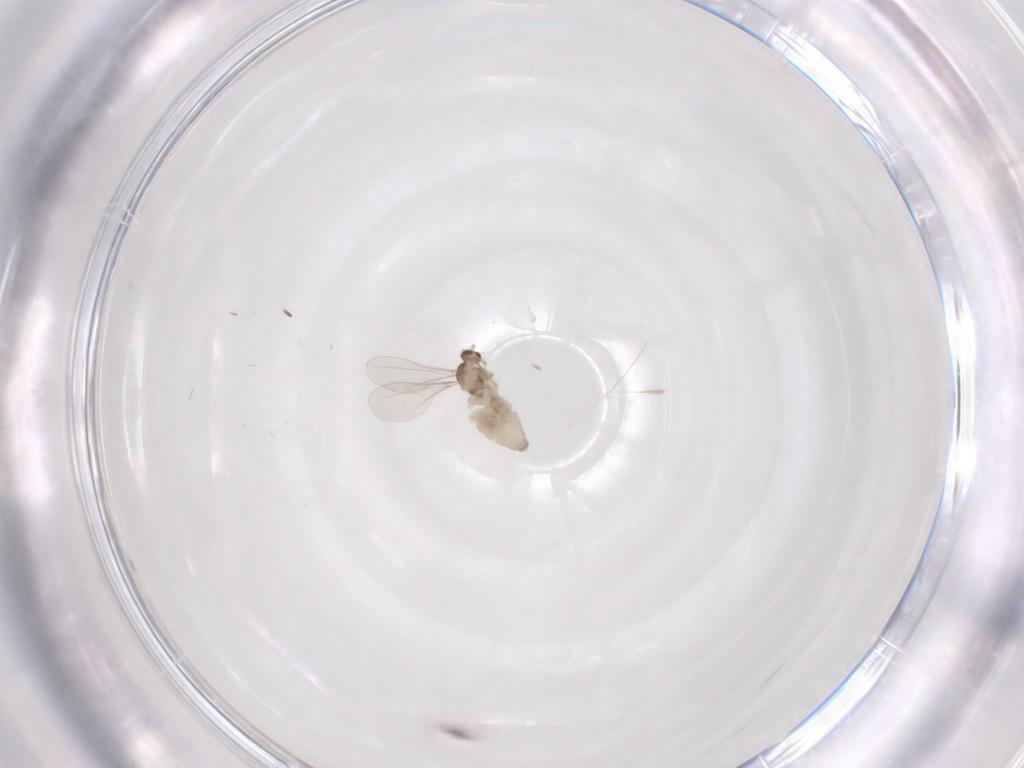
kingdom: Animalia
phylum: Arthropoda
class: Insecta
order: Diptera
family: Cecidomyiidae
